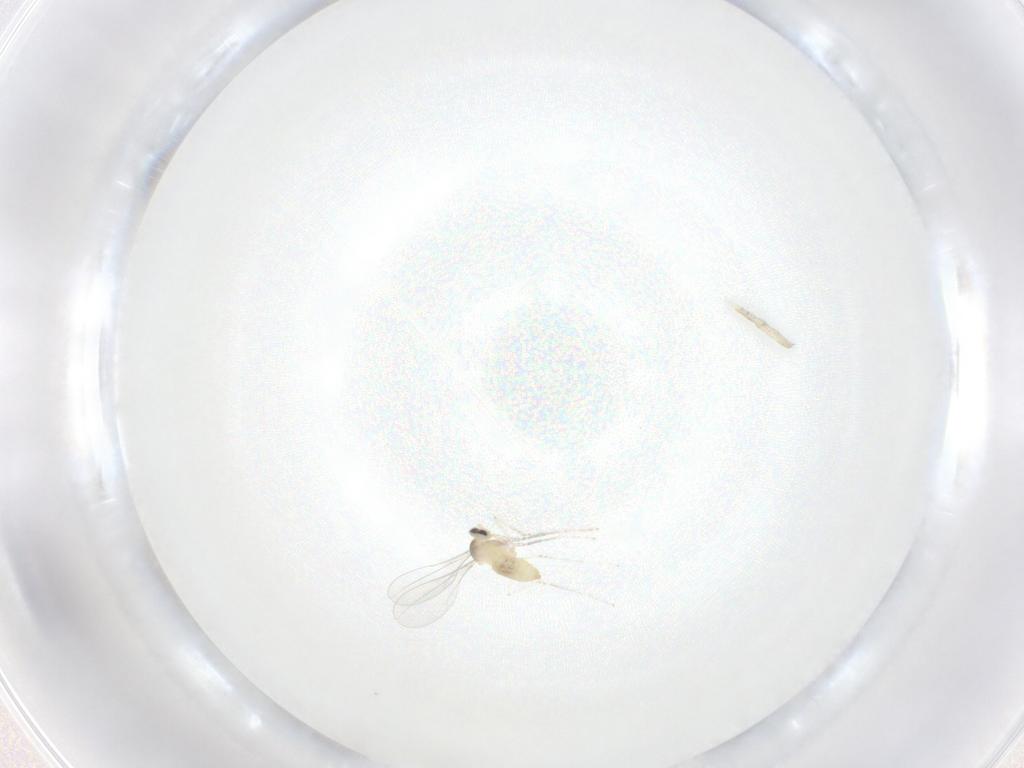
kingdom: Animalia
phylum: Arthropoda
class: Insecta
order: Diptera
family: Cecidomyiidae
